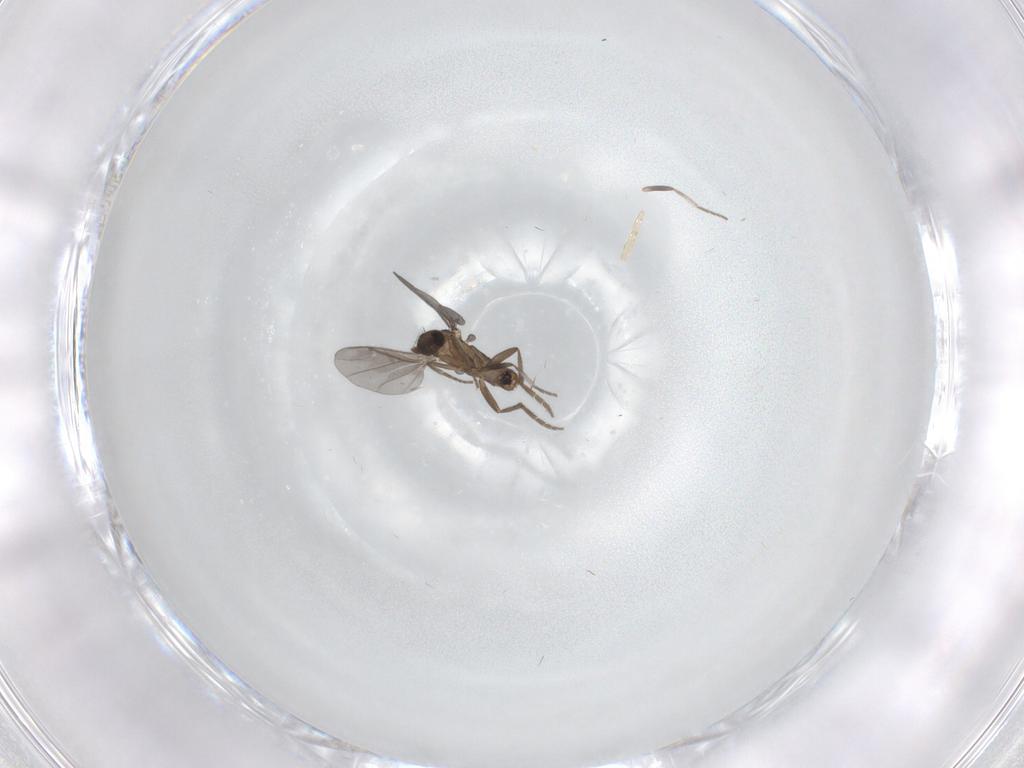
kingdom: Animalia
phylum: Arthropoda
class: Insecta
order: Diptera
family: Phoridae
